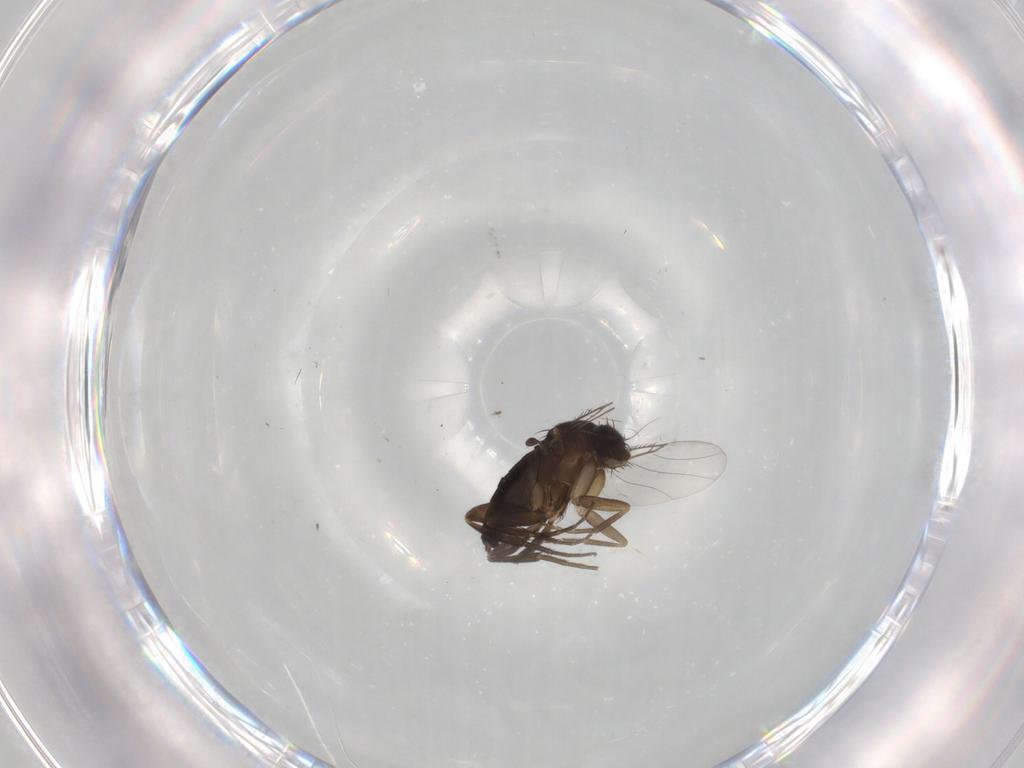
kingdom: Animalia
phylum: Arthropoda
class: Insecta
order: Diptera
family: Phoridae
